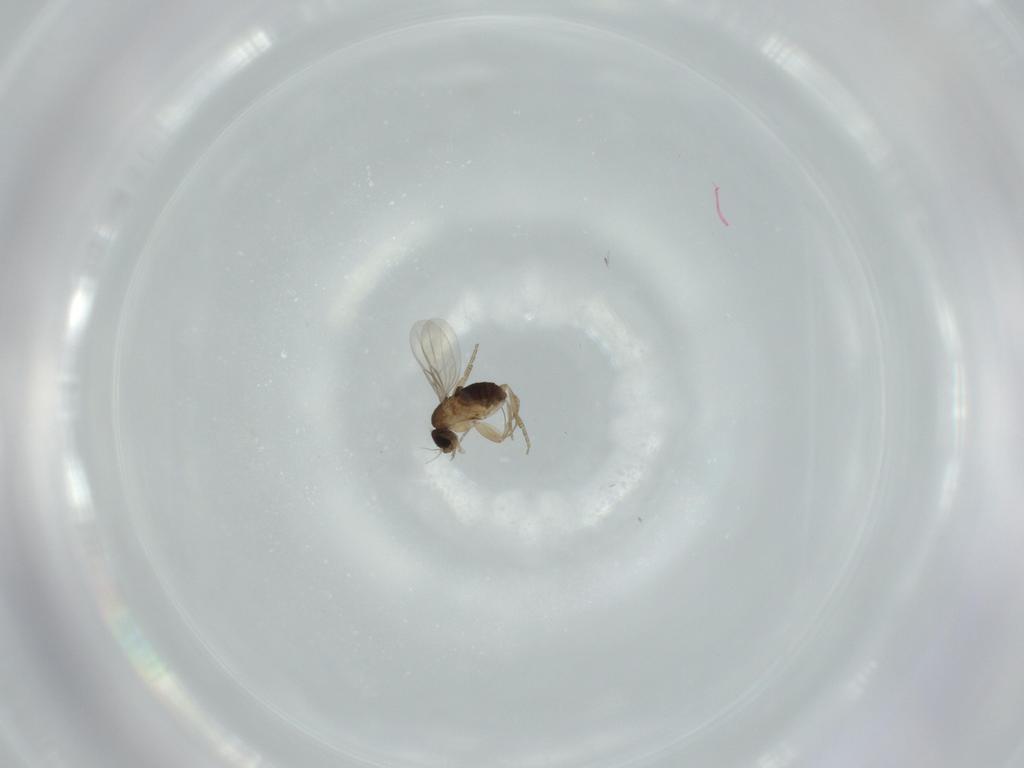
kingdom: Animalia
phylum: Arthropoda
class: Insecta
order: Diptera
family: Phoridae
